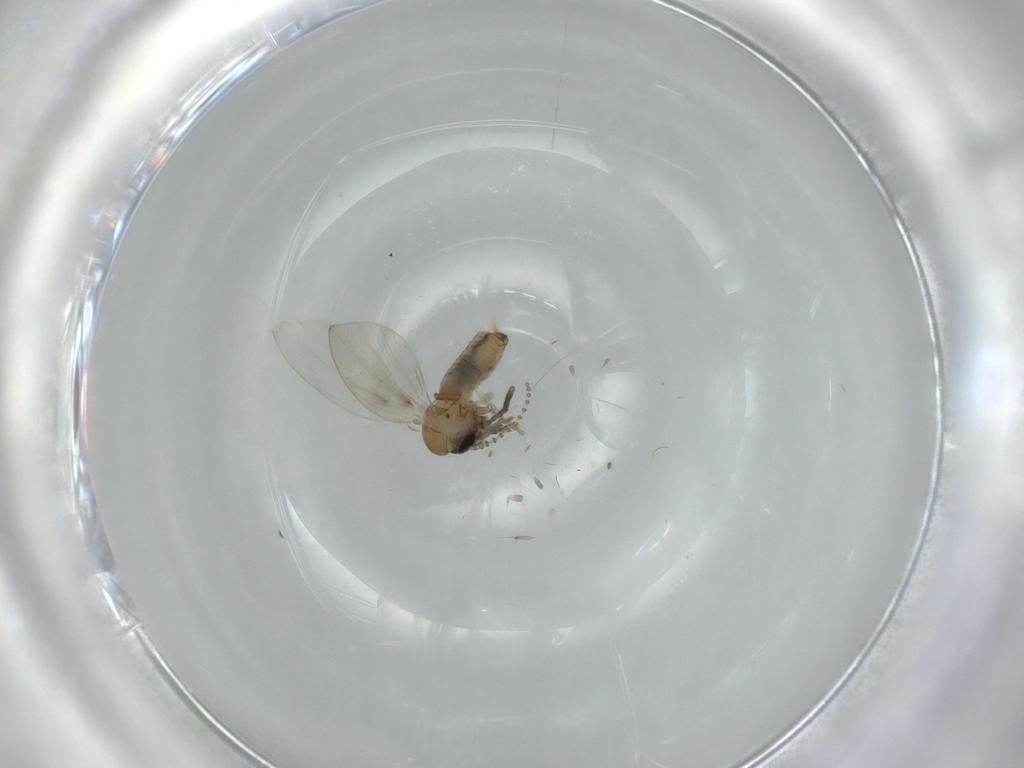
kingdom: Animalia
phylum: Arthropoda
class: Insecta
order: Diptera
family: Psychodidae
